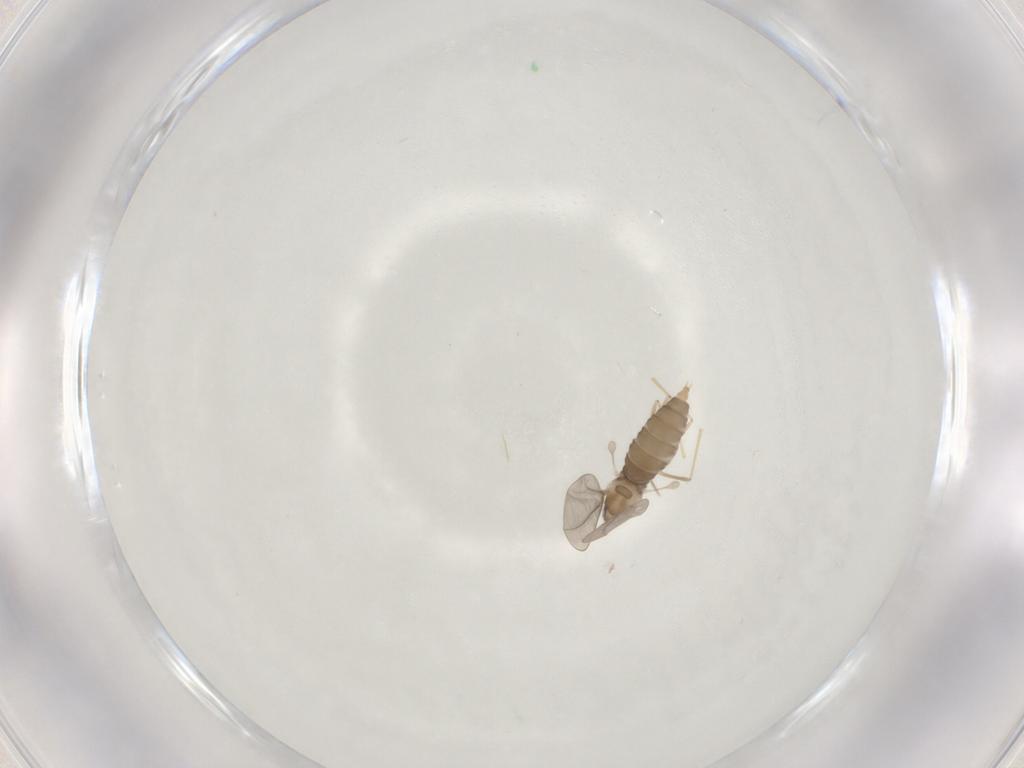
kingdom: Animalia
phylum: Arthropoda
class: Insecta
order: Diptera
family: Cecidomyiidae
